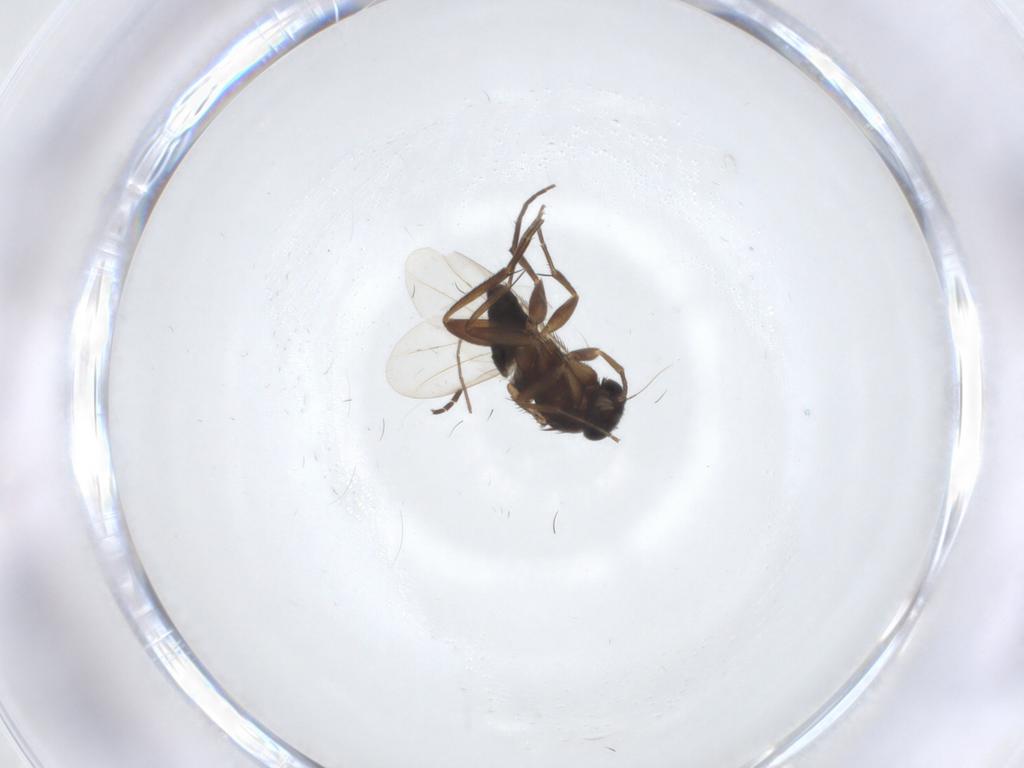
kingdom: Animalia
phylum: Arthropoda
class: Insecta
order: Diptera
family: Phoridae
